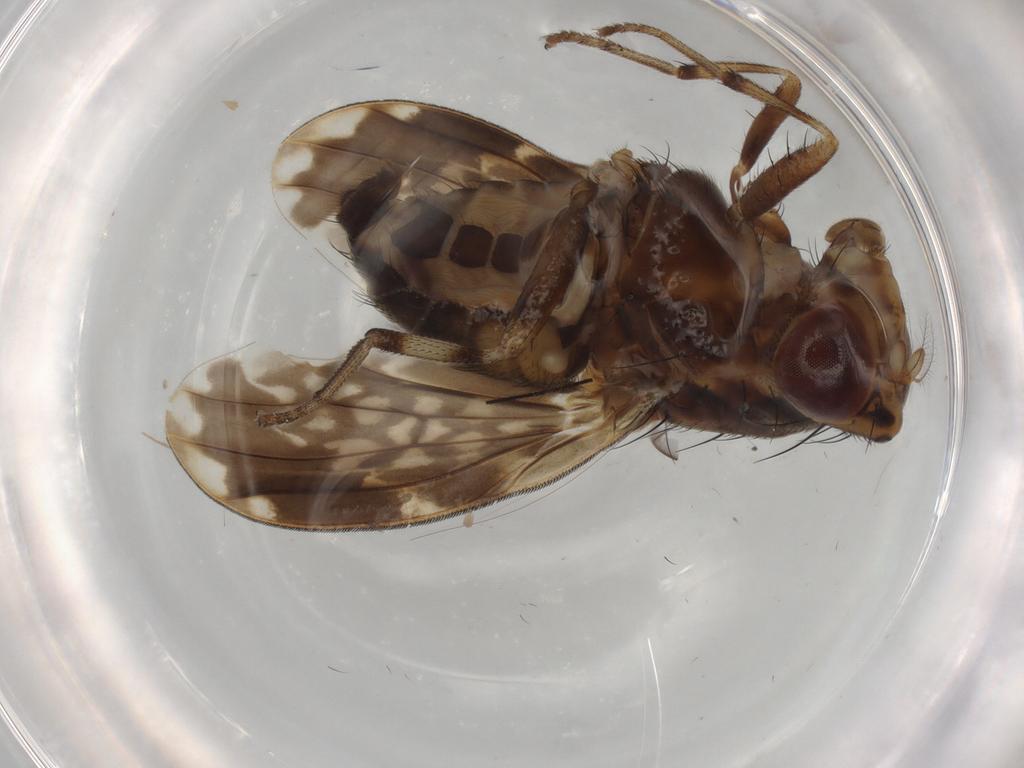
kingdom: Animalia
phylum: Arthropoda
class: Insecta
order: Diptera
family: Lauxaniidae
